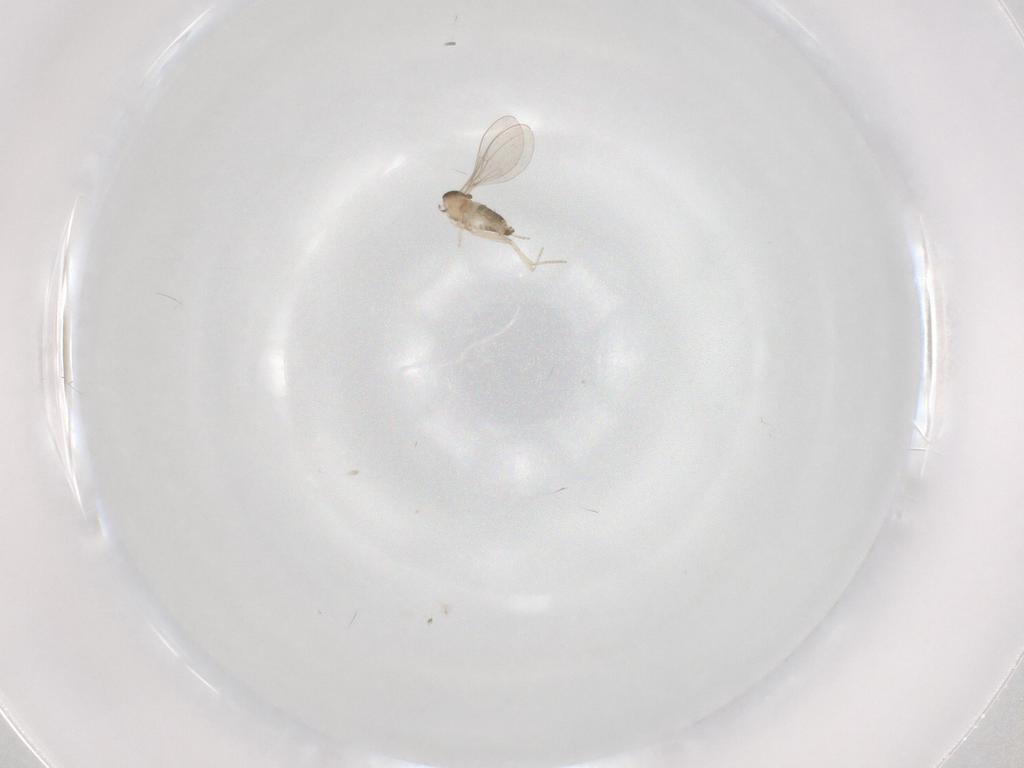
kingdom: Animalia
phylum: Arthropoda
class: Insecta
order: Diptera
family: Cecidomyiidae
